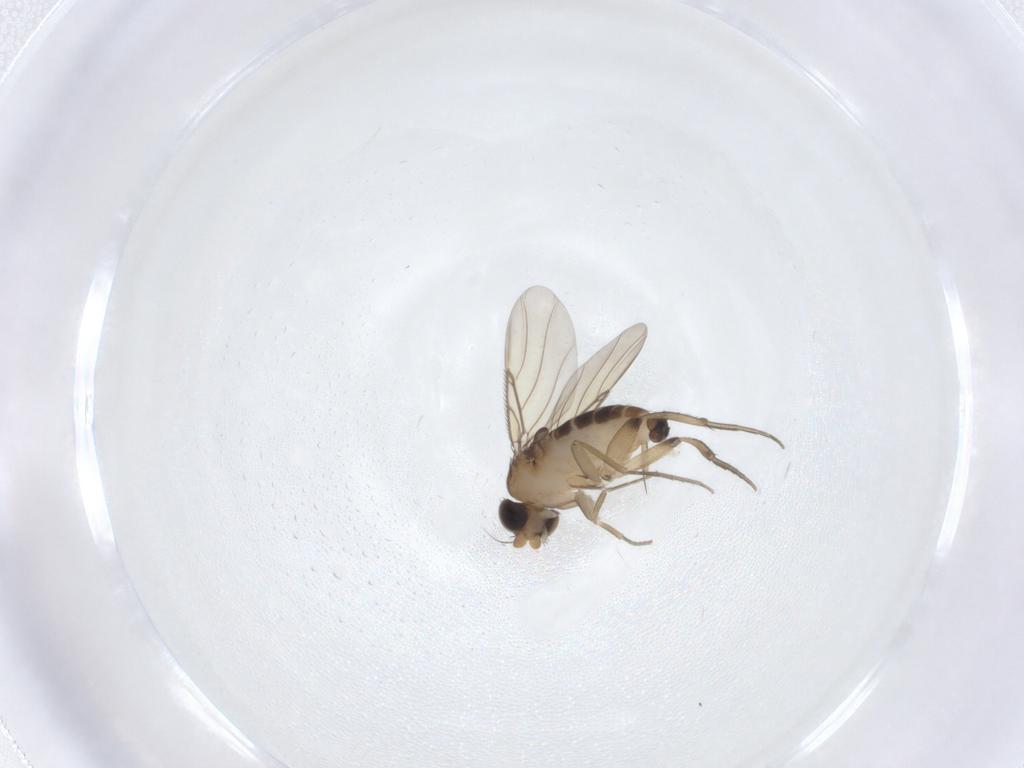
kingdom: Animalia
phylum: Arthropoda
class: Insecta
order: Diptera
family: Phoridae
